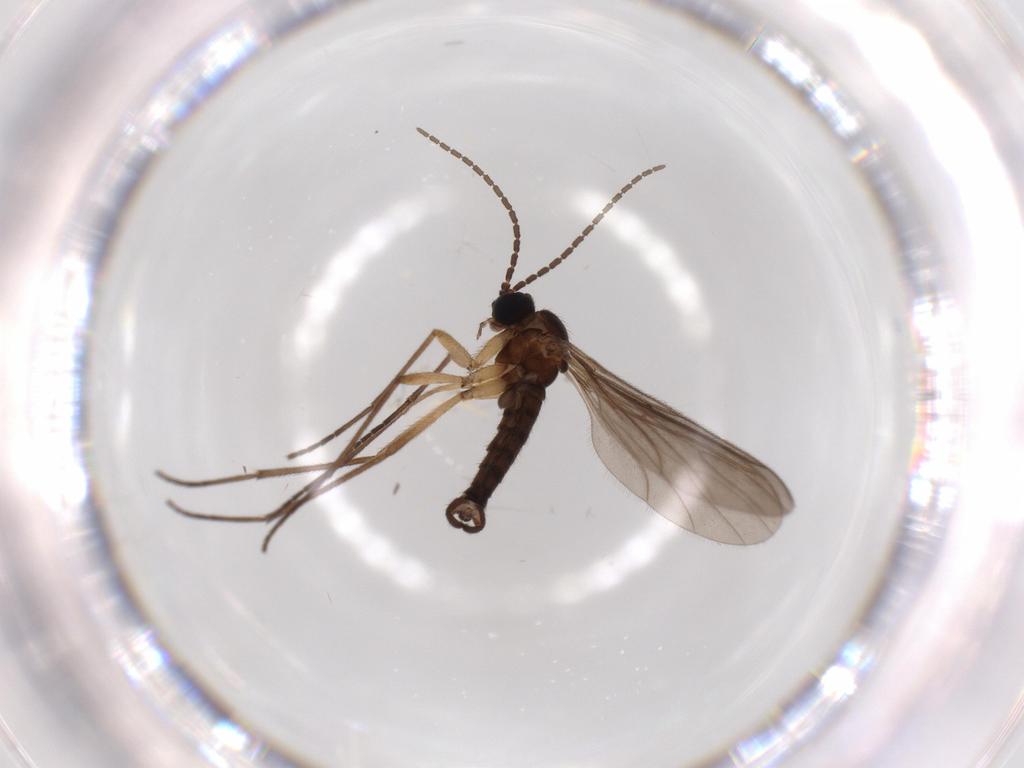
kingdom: Animalia
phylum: Arthropoda
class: Insecta
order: Diptera
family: Sciaridae
